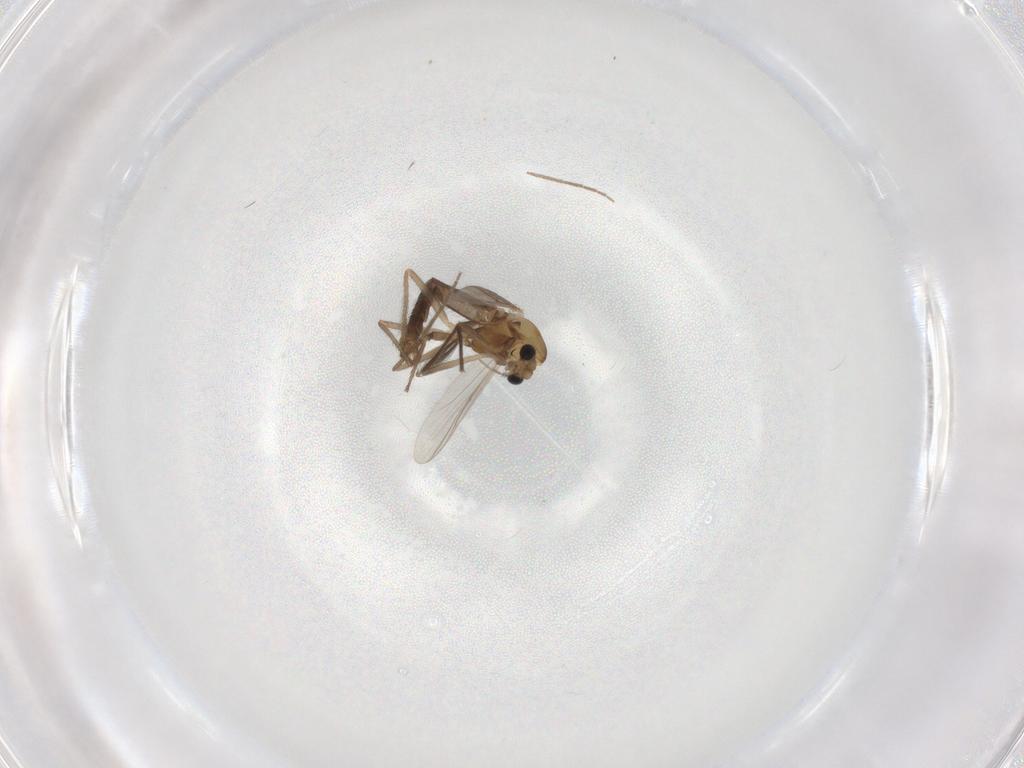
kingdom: Animalia
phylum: Arthropoda
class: Insecta
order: Diptera
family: Chironomidae
